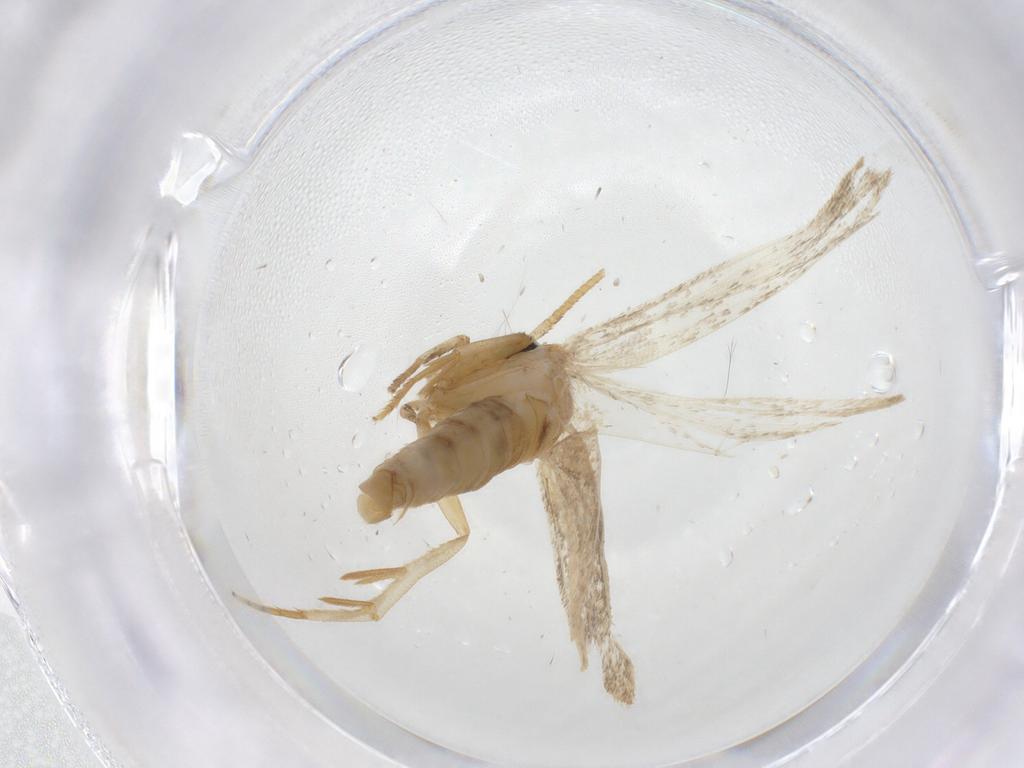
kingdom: Animalia
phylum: Arthropoda
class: Insecta
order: Lepidoptera
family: Oecophoridae
